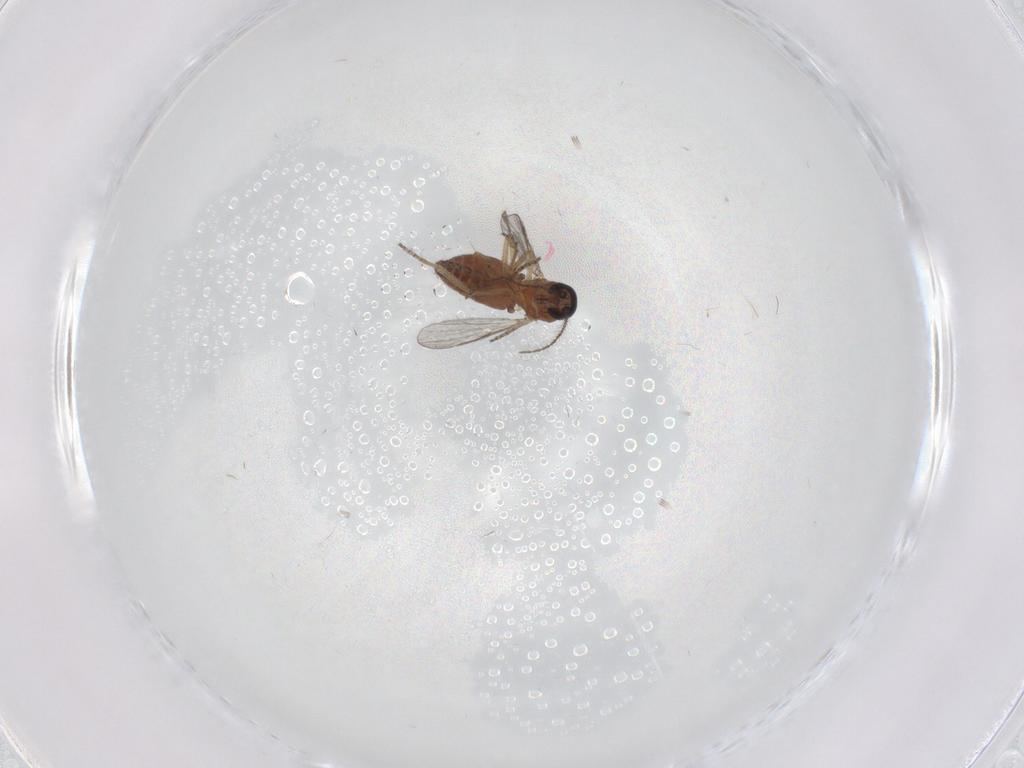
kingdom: Animalia
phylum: Arthropoda
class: Insecta
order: Diptera
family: Ceratopogonidae
